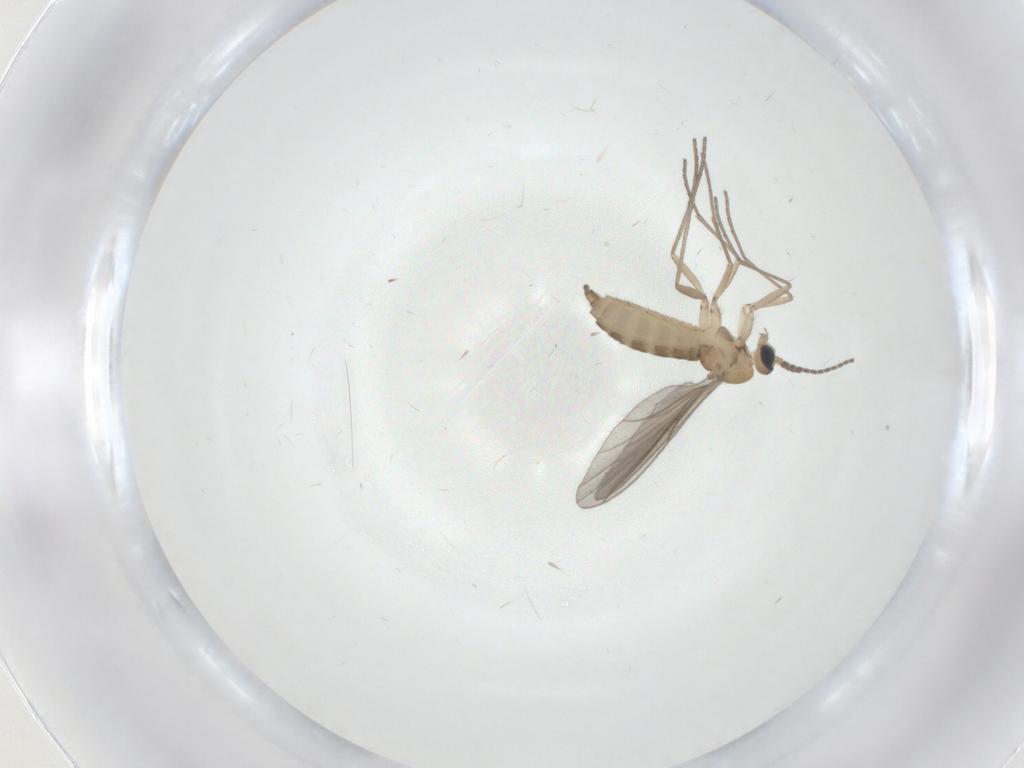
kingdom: Animalia
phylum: Arthropoda
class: Insecta
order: Diptera
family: Sciaridae
